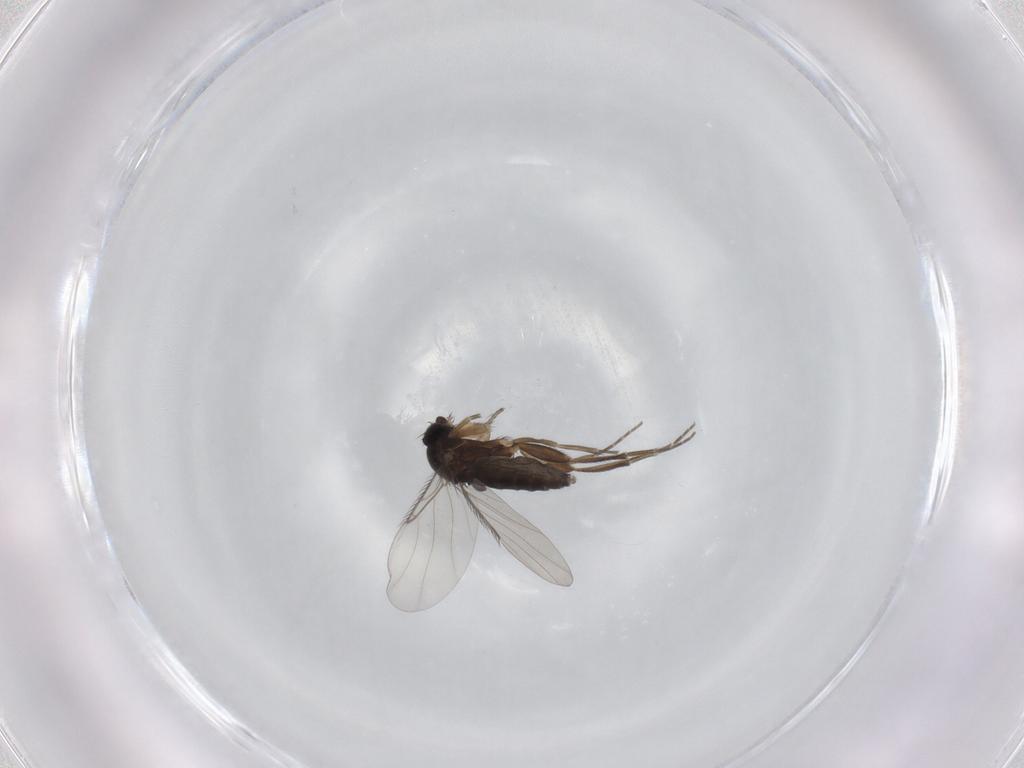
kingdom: Animalia
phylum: Arthropoda
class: Insecta
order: Diptera
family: Phoridae
